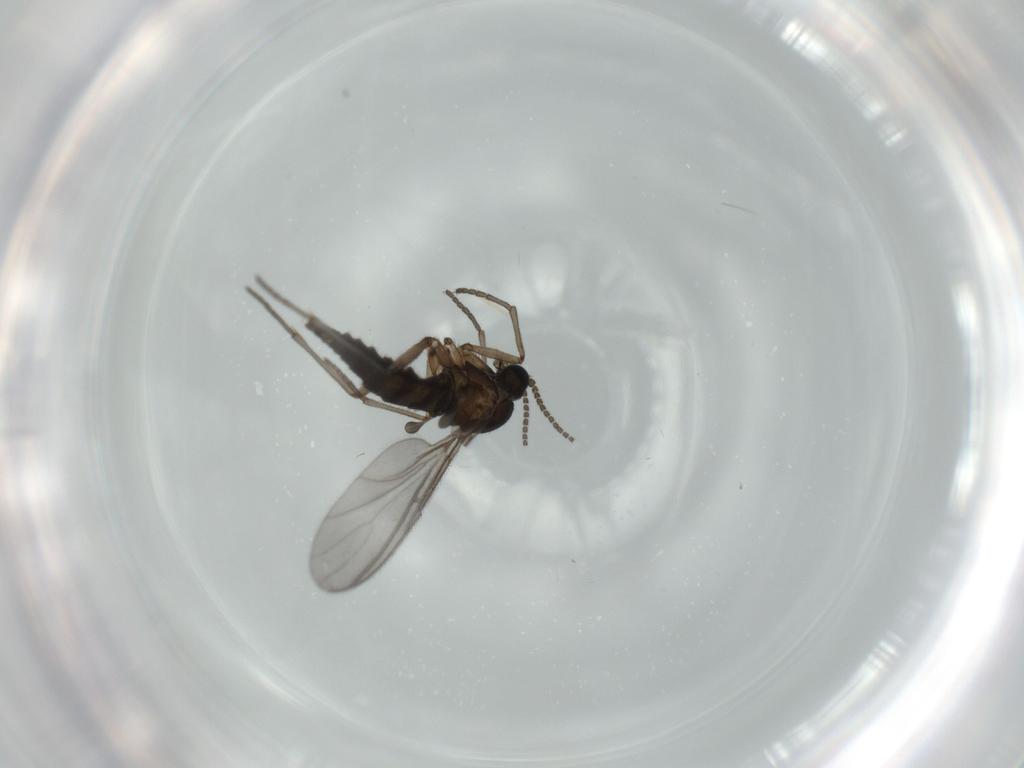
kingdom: Animalia
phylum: Arthropoda
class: Insecta
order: Diptera
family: Sciaridae
